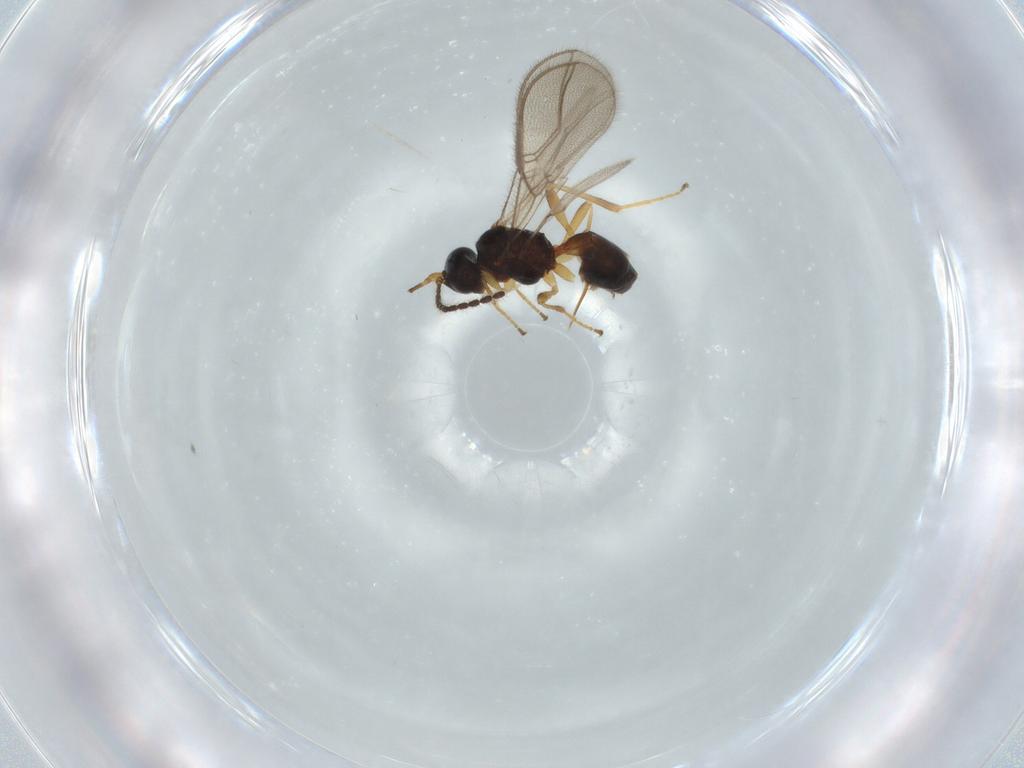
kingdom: Animalia
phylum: Arthropoda
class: Insecta
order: Hymenoptera
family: Braconidae
